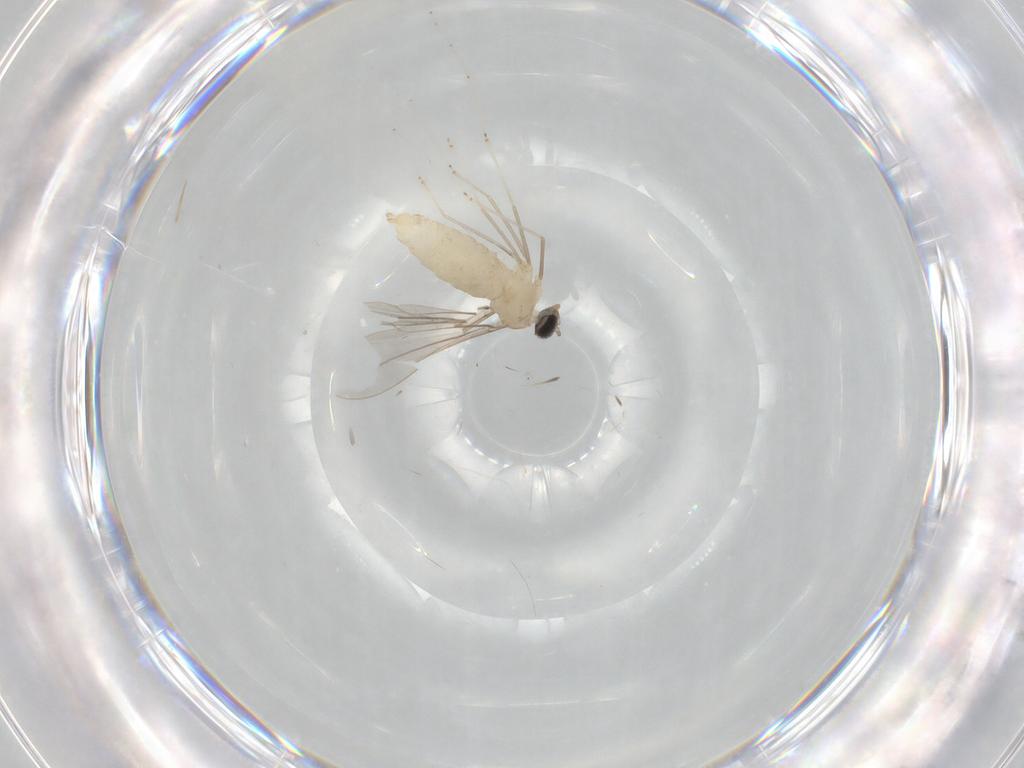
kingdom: Animalia
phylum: Arthropoda
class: Insecta
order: Diptera
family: Cecidomyiidae
